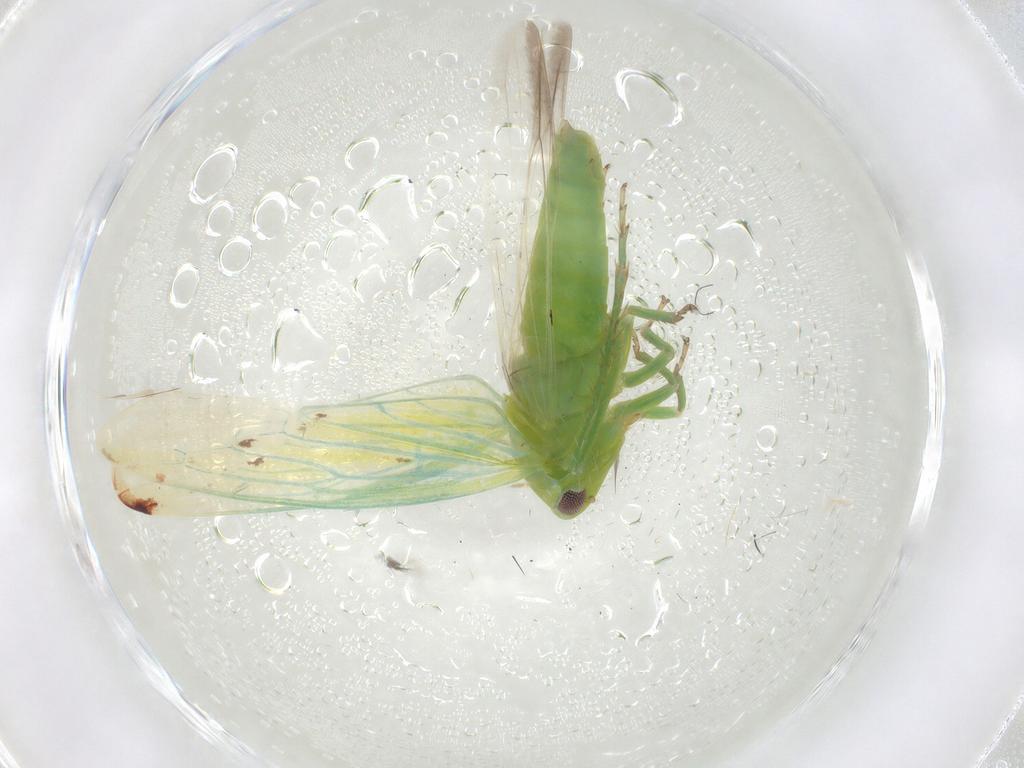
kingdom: Animalia
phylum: Arthropoda
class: Insecta
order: Hemiptera
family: Cicadellidae
